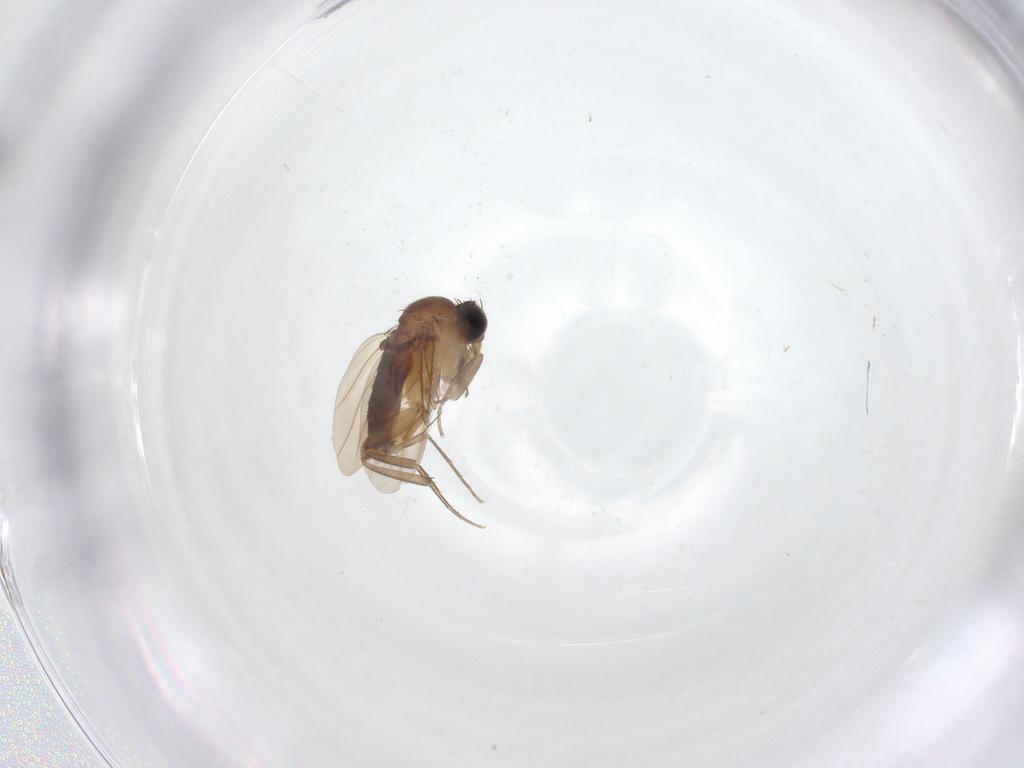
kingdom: Animalia
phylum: Arthropoda
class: Insecta
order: Diptera
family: Phoridae
